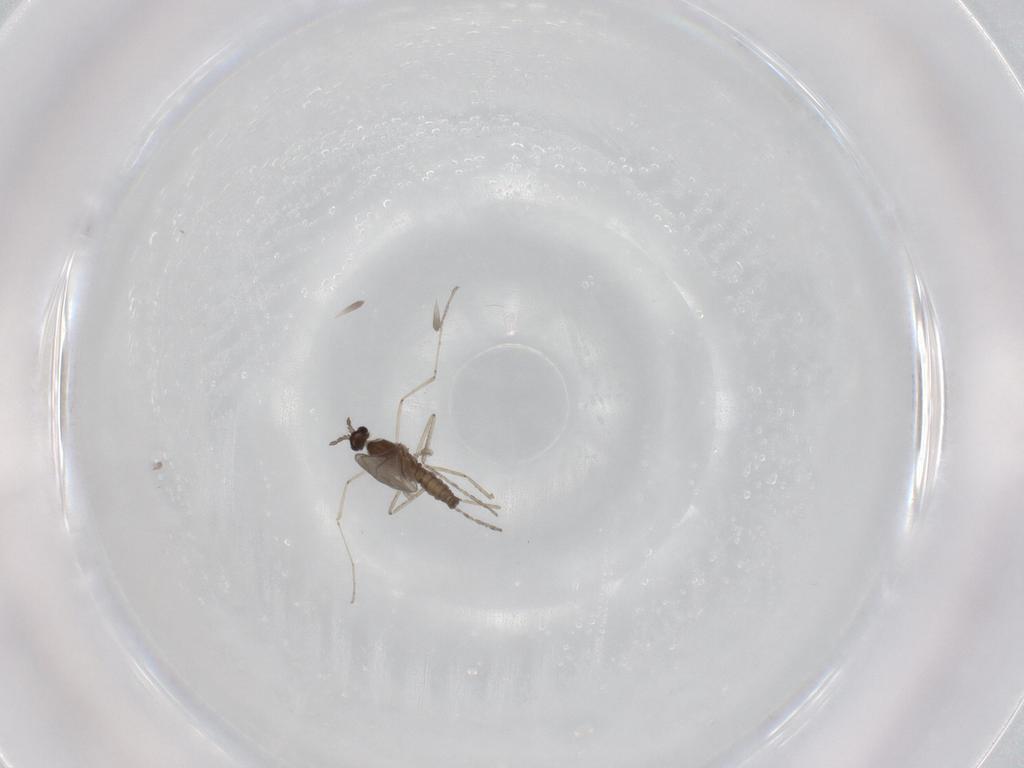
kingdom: Animalia
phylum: Arthropoda
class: Insecta
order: Diptera
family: Cecidomyiidae
